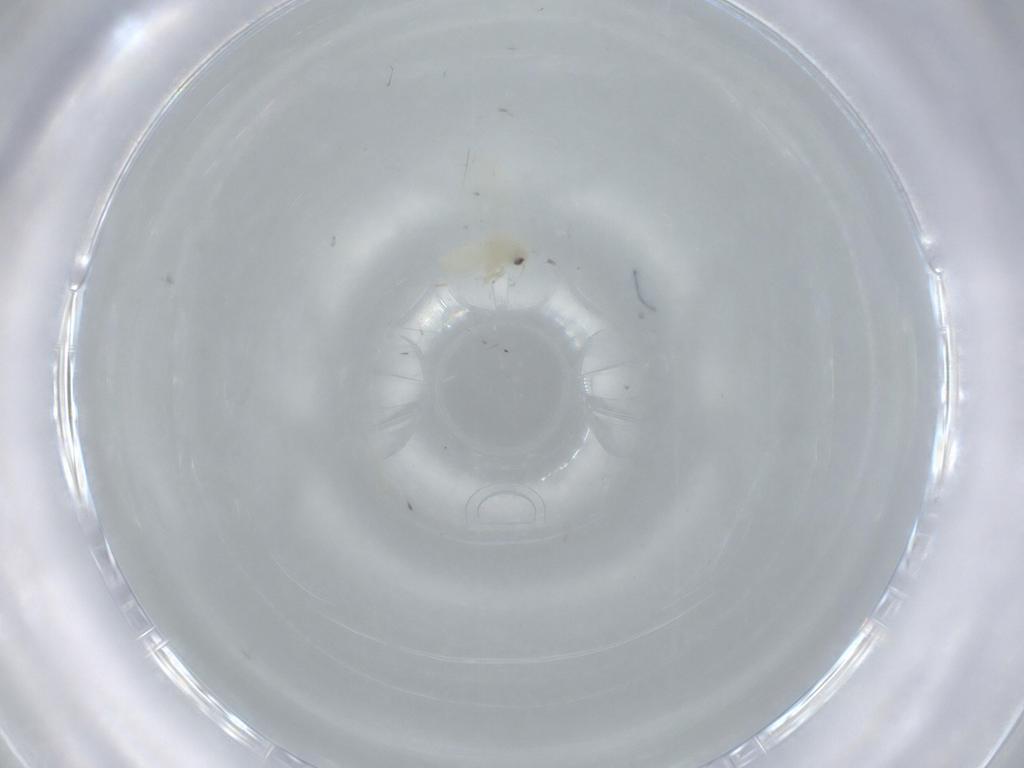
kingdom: Animalia
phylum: Arthropoda
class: Insecta
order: Hemiptera
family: Aleyrodidae
